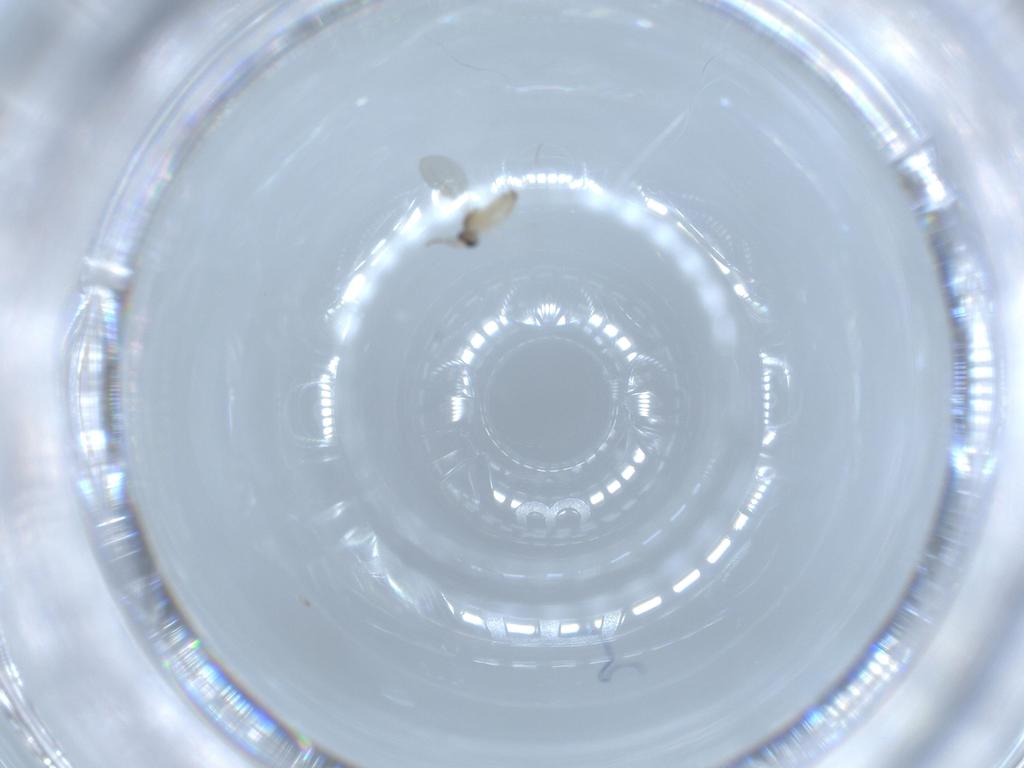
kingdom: Animalia
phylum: Arthropoda
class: Insecta
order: Diptera
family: Cecidomyiidae
